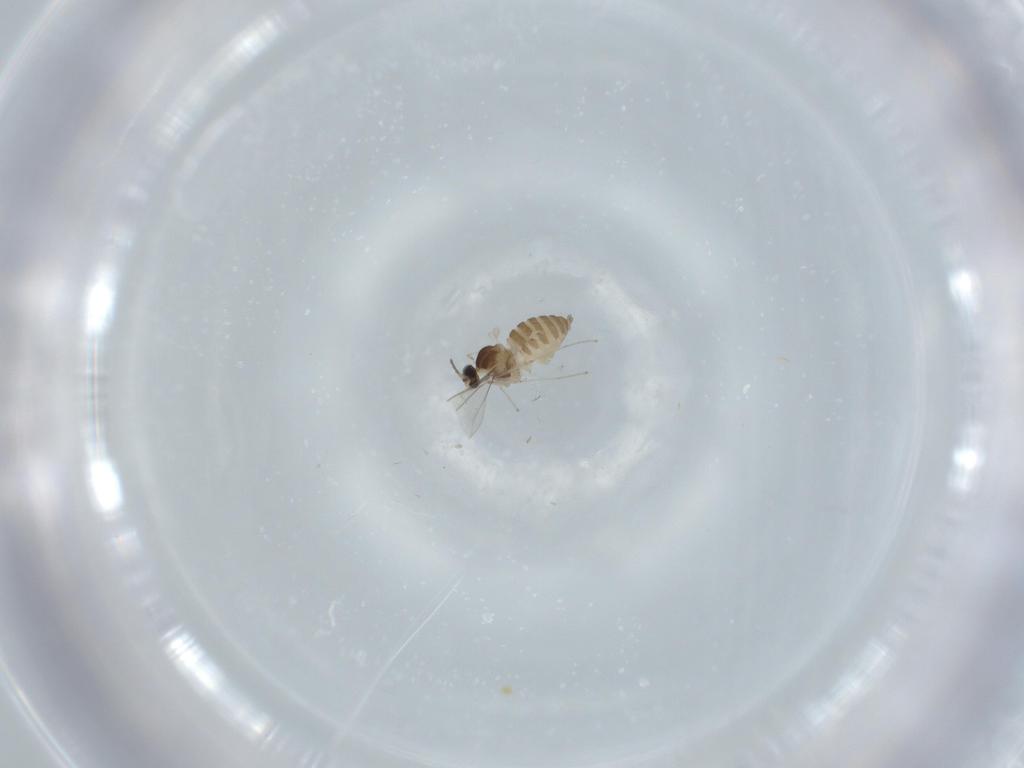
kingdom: Animalia
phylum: Arthropoda
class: Insecta
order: Diptera
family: Cecidomyiidae
